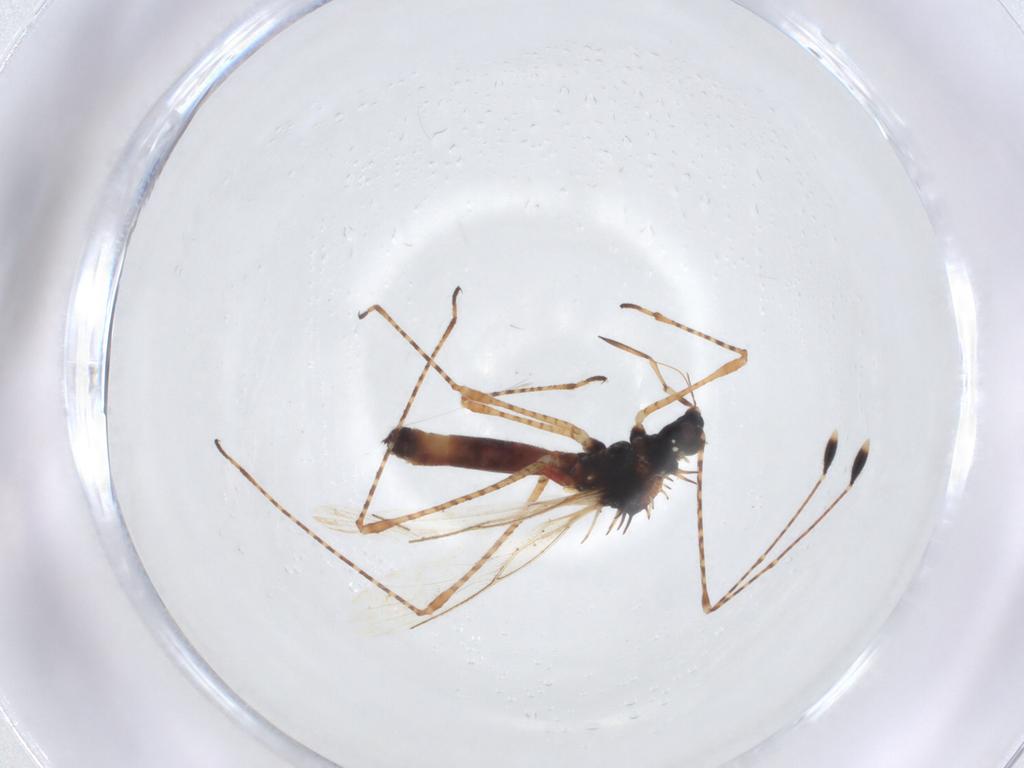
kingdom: Animalia
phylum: Arthropoda
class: Insecta
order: Hemiptera
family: Berytidae
